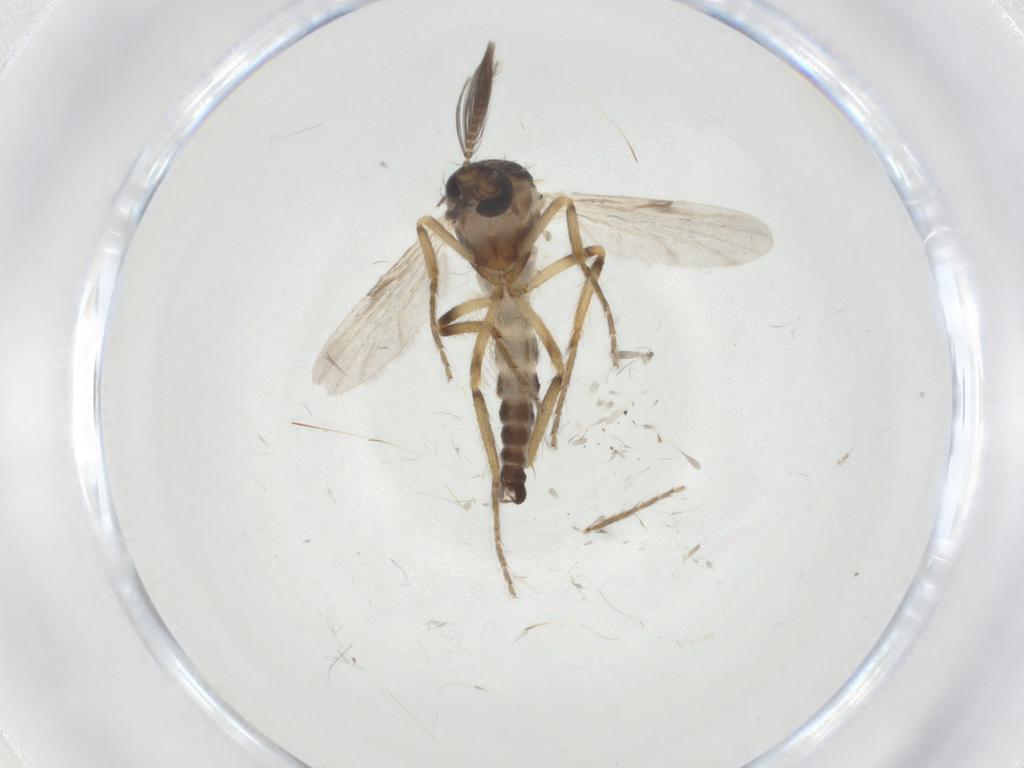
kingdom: Animalia
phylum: Arthropoda
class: Insecta
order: Diptera
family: Ceratopogonidae
